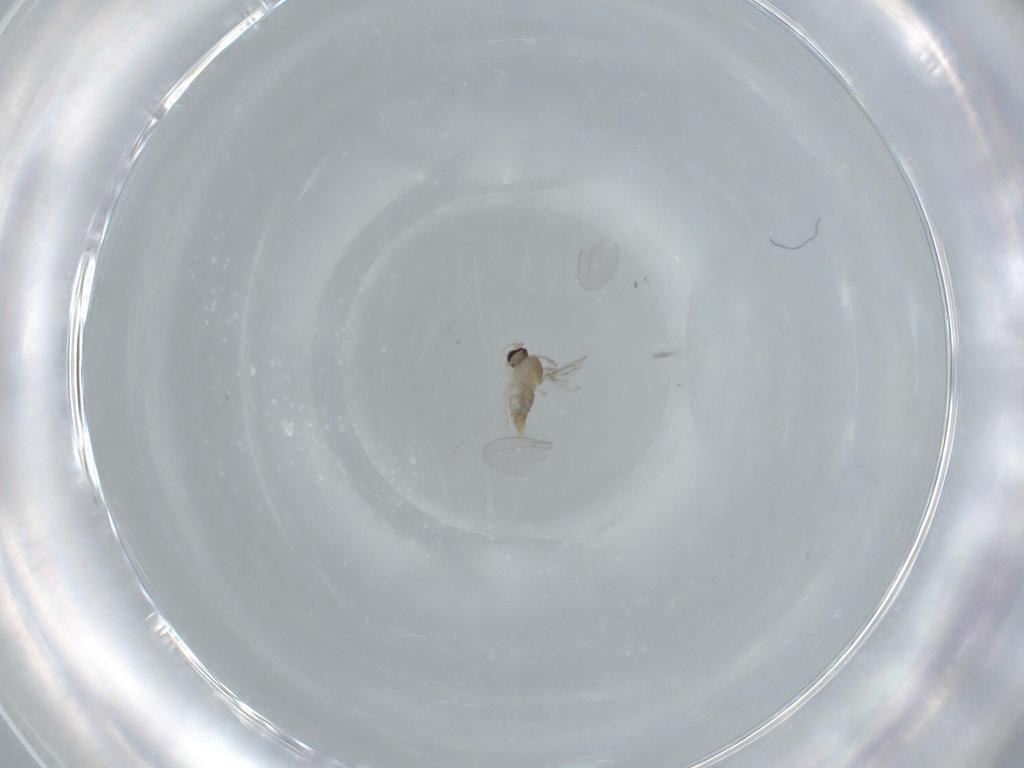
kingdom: Animalia
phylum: Arthropoda
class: Insecta
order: Diptera
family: Cecidomyiidae
